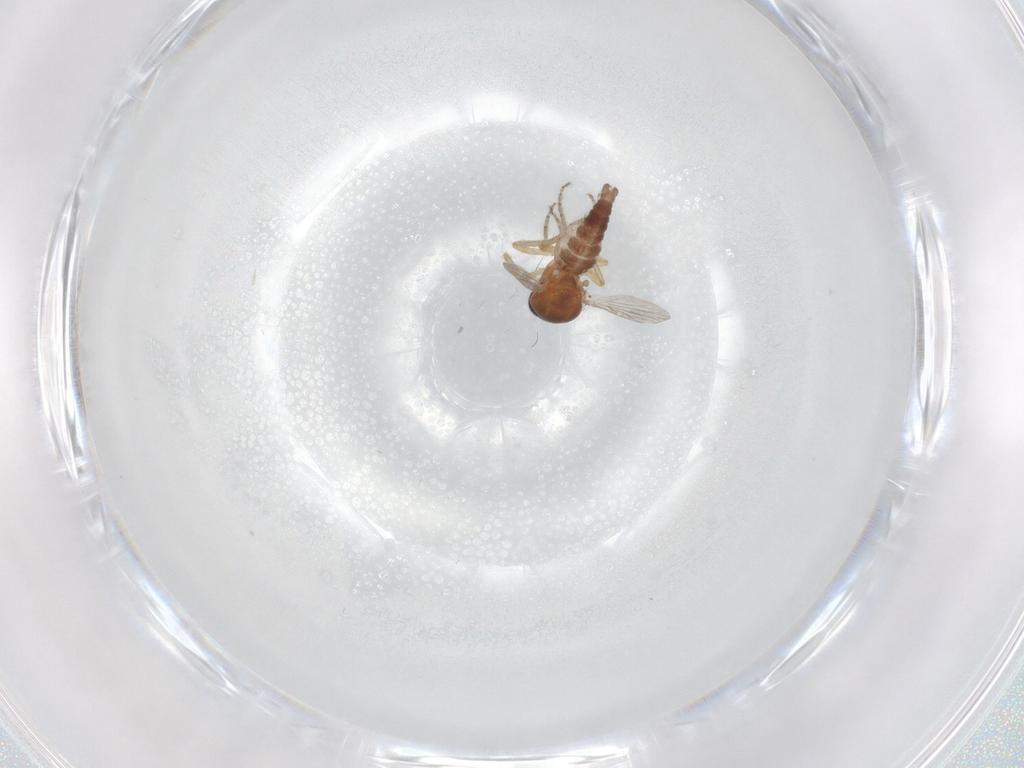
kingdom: Animalia
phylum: Arthropoda
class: Insecta
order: Diptera
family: Ceratopogonidae
